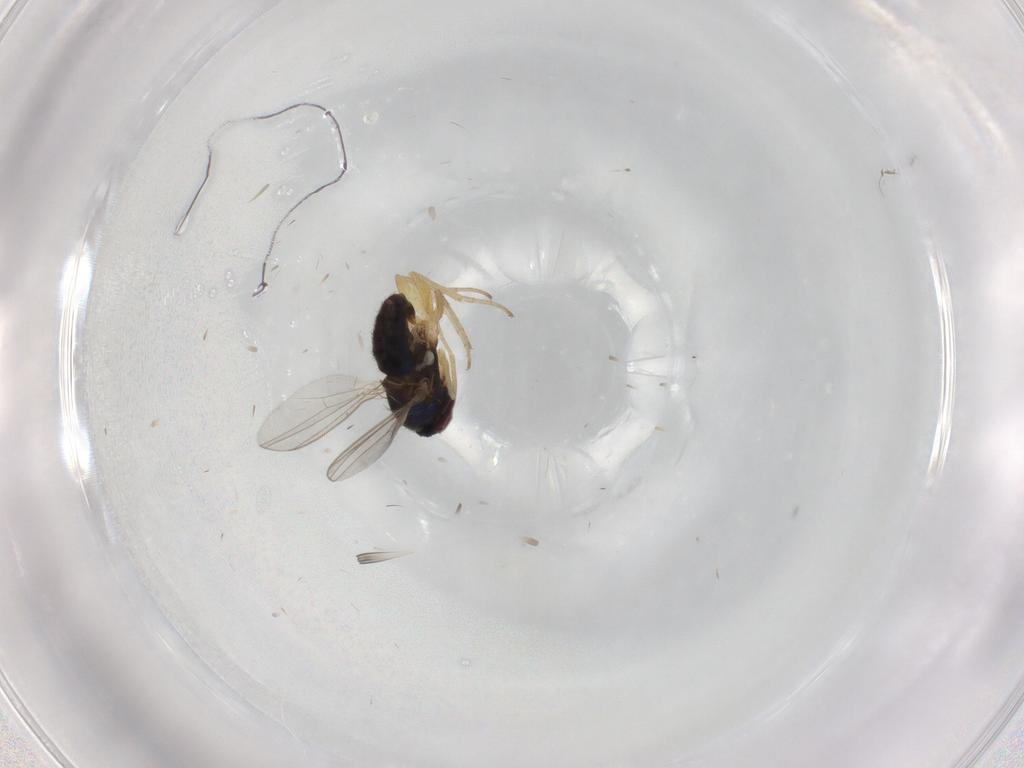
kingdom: Animalia
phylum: Arthropoda
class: Insecta
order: Diptera
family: Dolichopodidae
